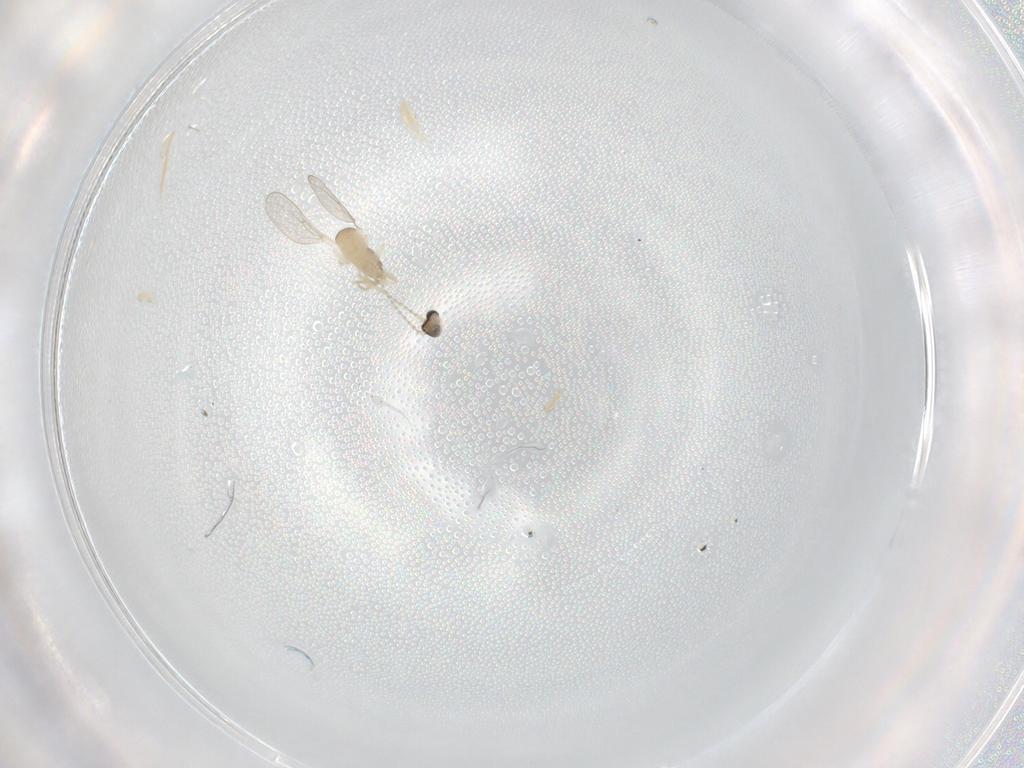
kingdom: Animalia
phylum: Arthropoda
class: Insecta
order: Diptera
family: Cecidomyiidae
